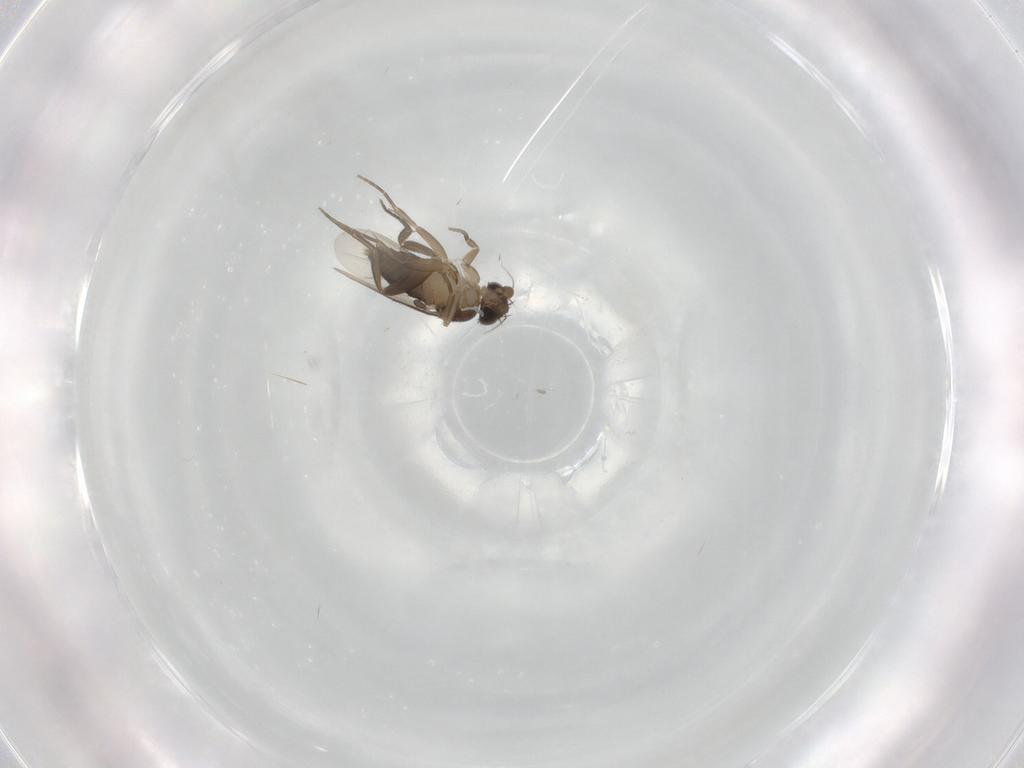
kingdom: Animalia
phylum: Arthropoda
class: Insecta
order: Diptera
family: Phoridae
